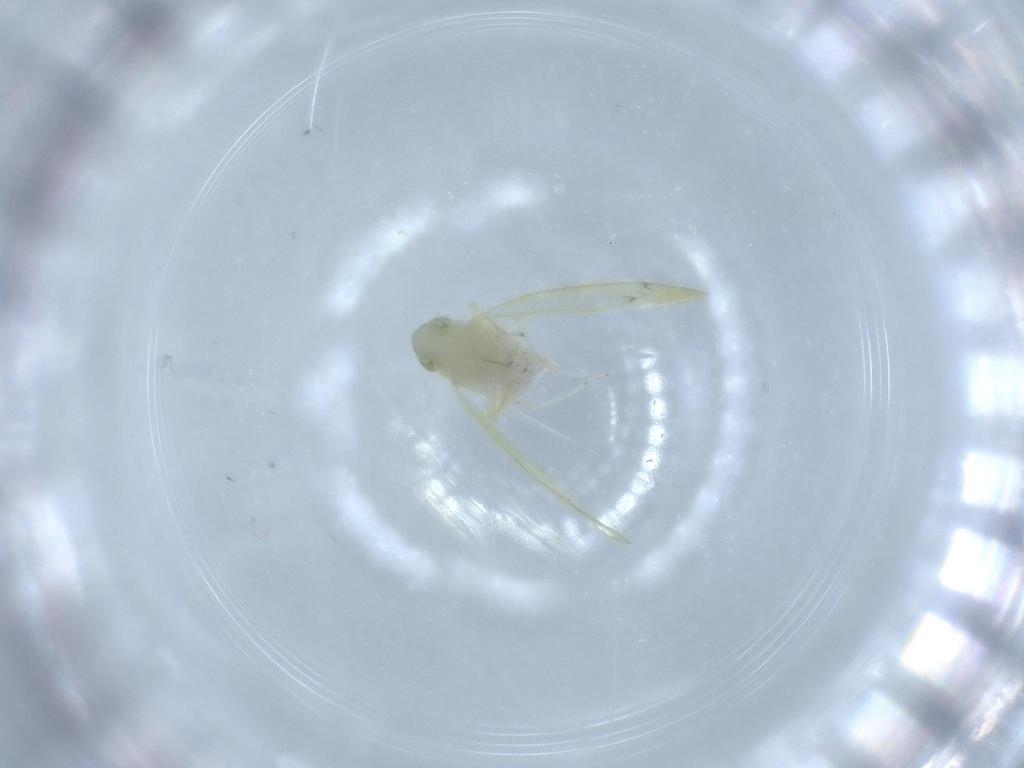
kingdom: Animalia
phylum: Arthropoda
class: Insecta
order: Hemiptera
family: Cicadellidae
